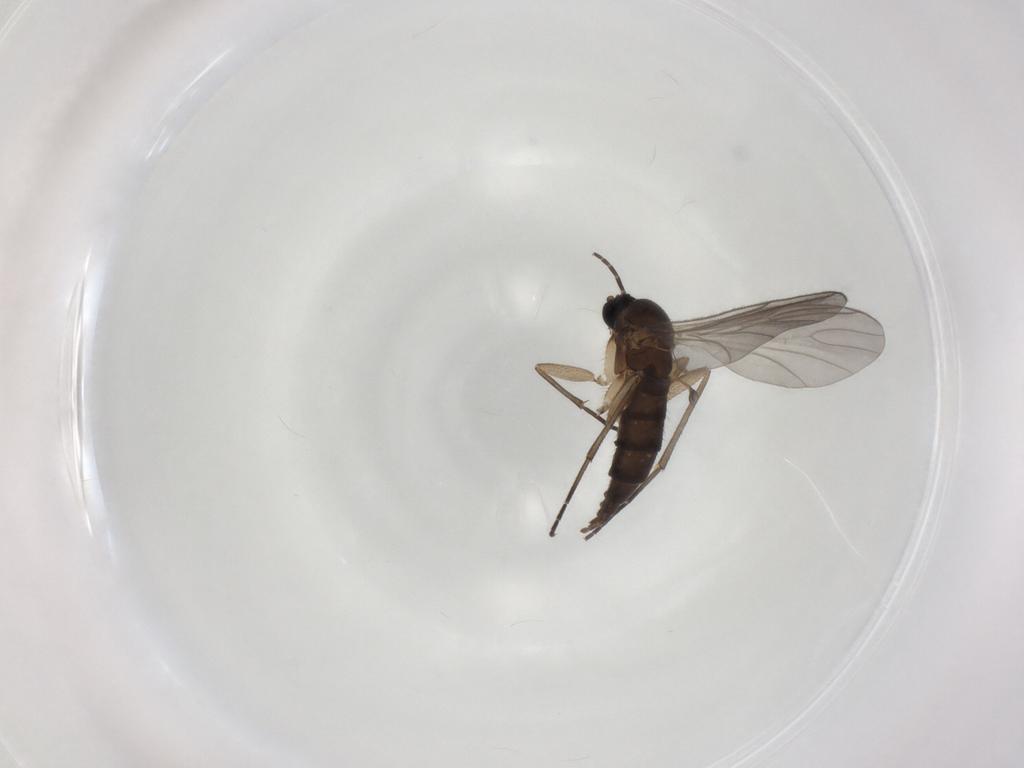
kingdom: Animalia
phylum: Arthropoda
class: Insecta
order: Diptera
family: Sciaridae
